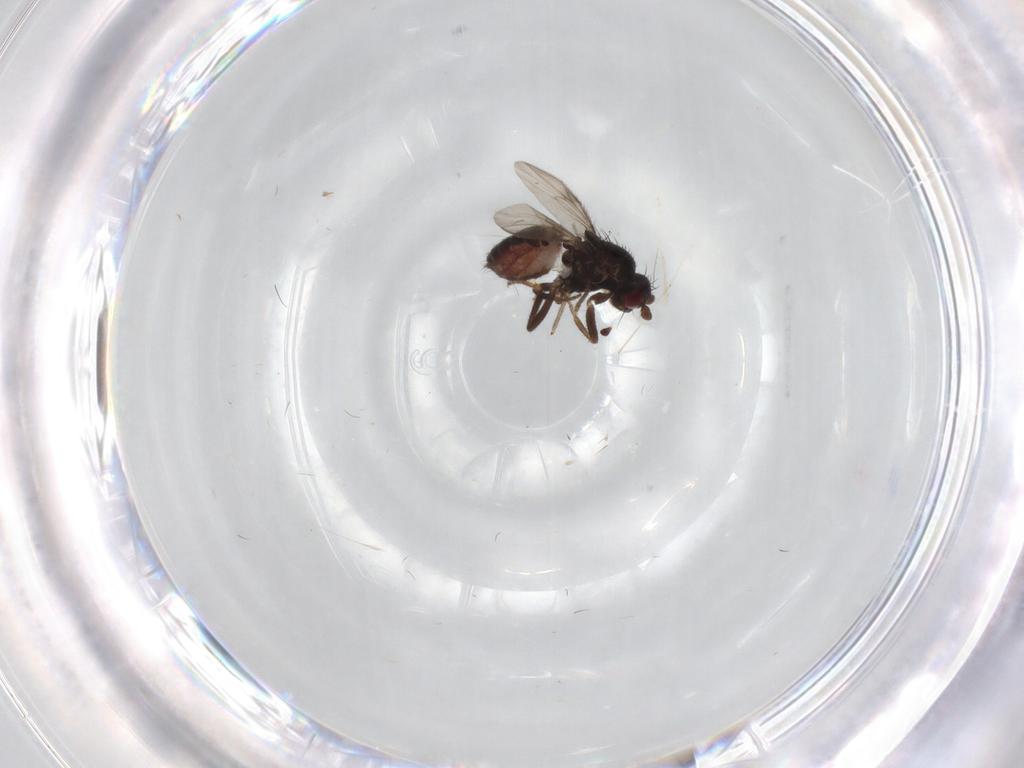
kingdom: Animalia
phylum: Arthropoda
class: Insecta
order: Diptera
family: Sphaeroceridae
